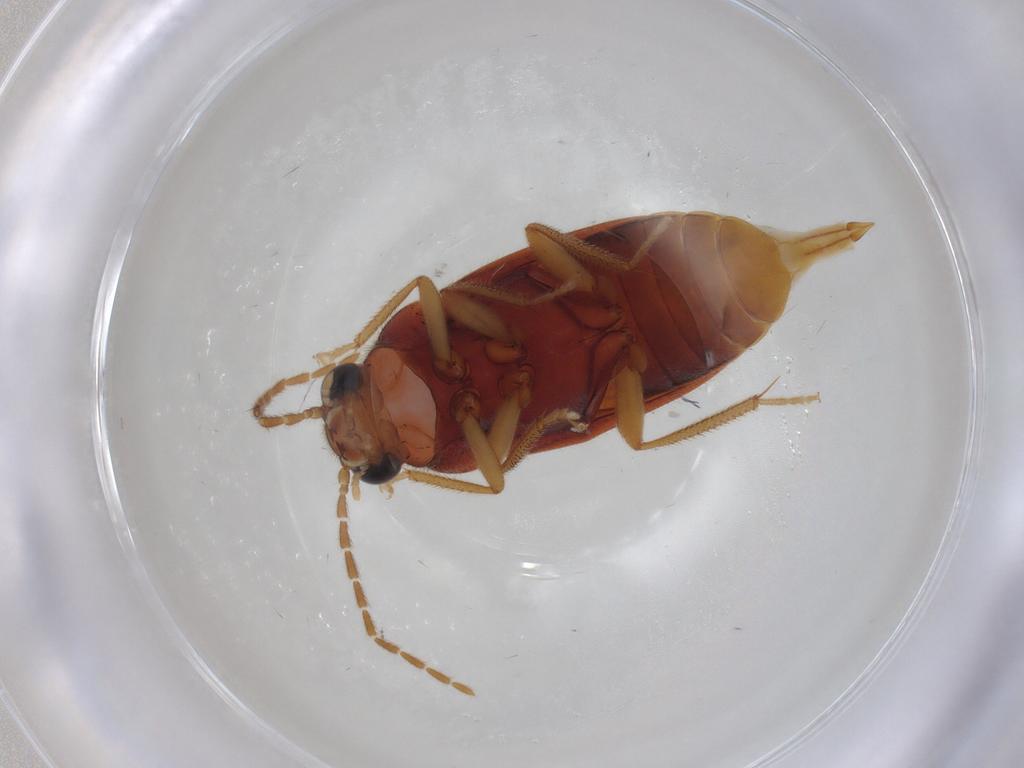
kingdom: Animalia
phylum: Arthropoda
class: Insecta
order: Coleoptera
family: Ptilodactylidae
